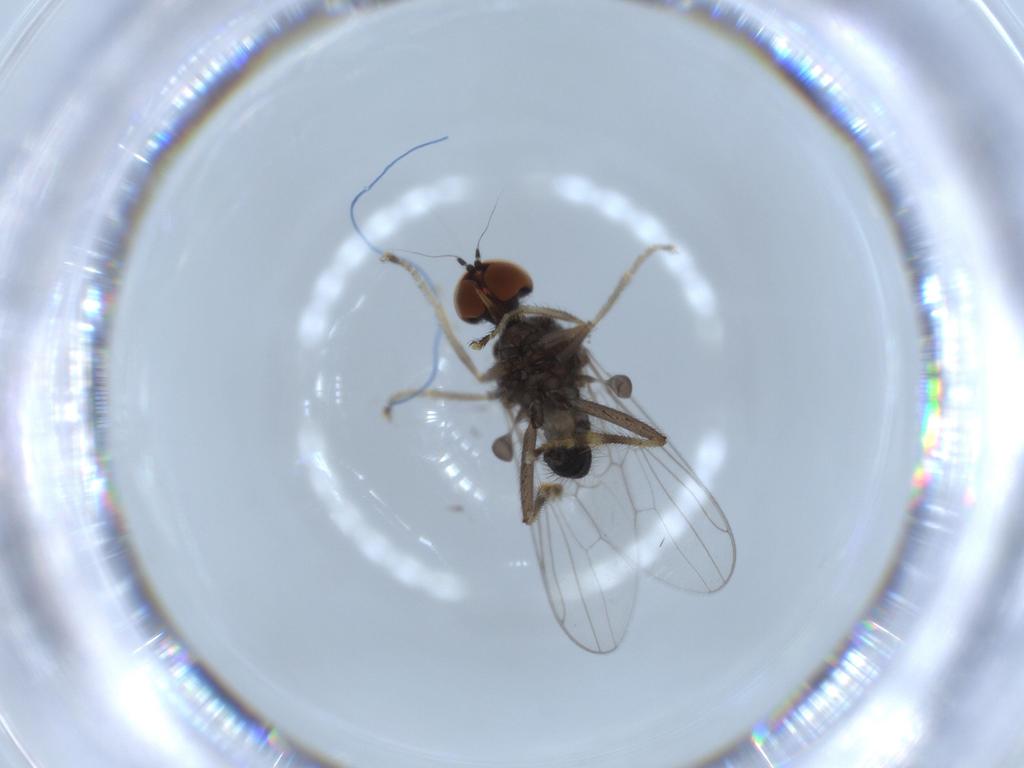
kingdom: Animalia
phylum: Arthropoda
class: Insecta
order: Diptera
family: Hybotidae
